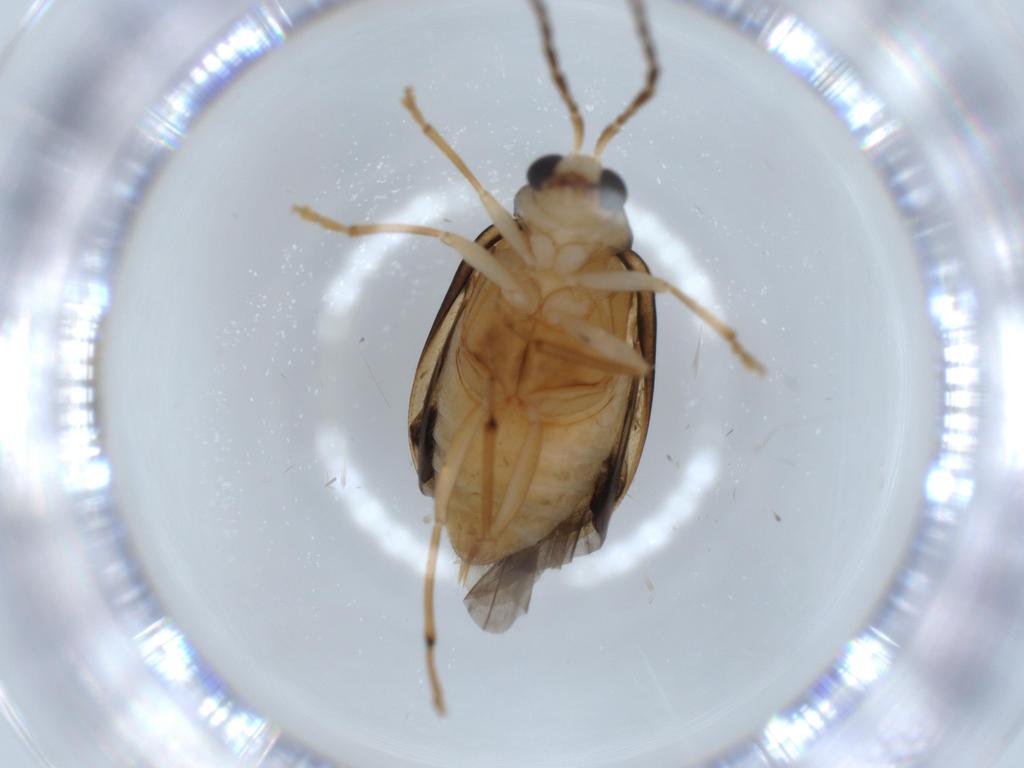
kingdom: Animalia
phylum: Arthropoda
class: Insecta
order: Coleoptera
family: Chrysomelidae
